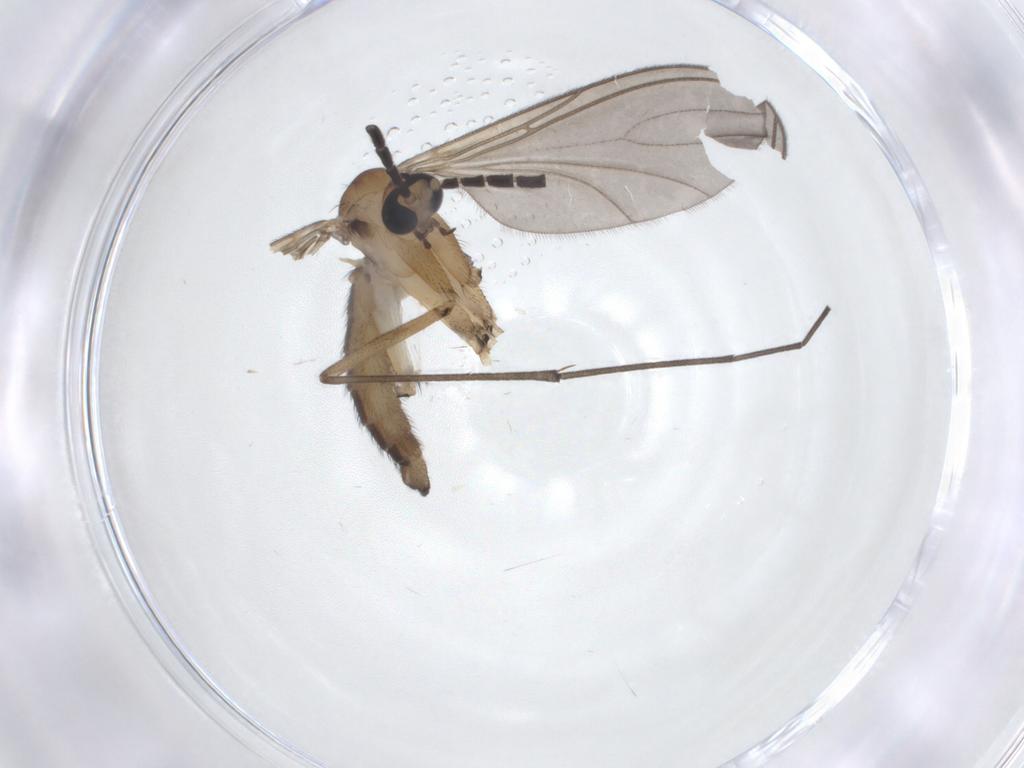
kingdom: Animalia
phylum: Arthropoda
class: Insecta
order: Diptera
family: Sciaridae
